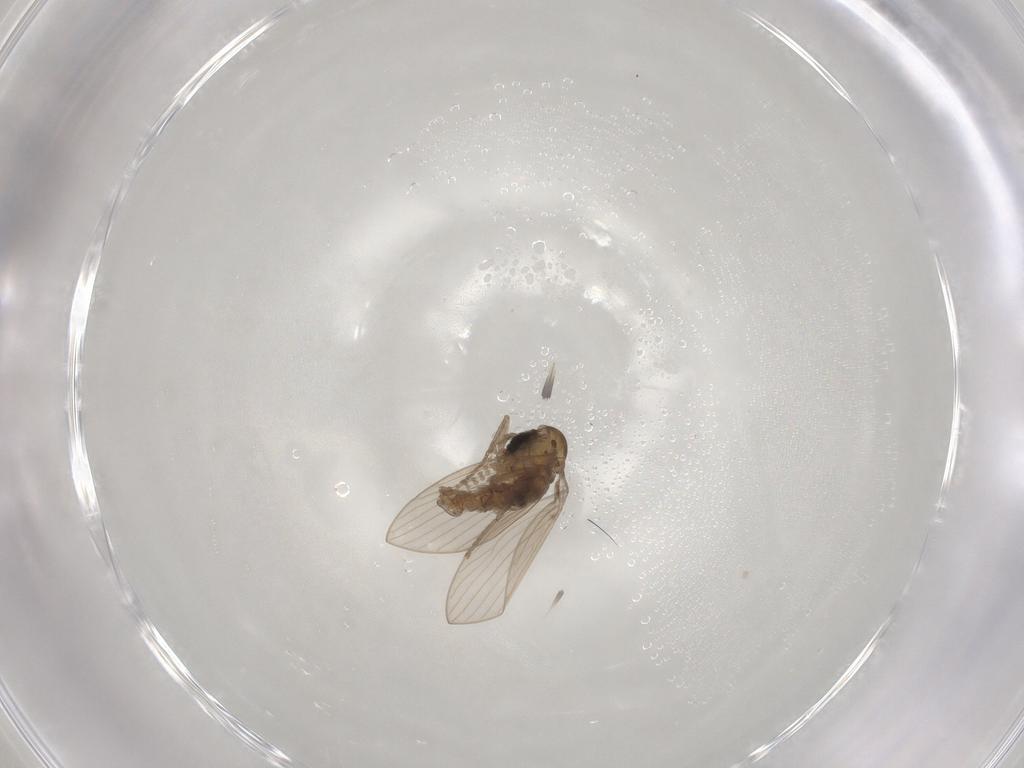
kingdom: Animalia
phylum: Arthropoda
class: Insecta
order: Diptera
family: Psychodidae
